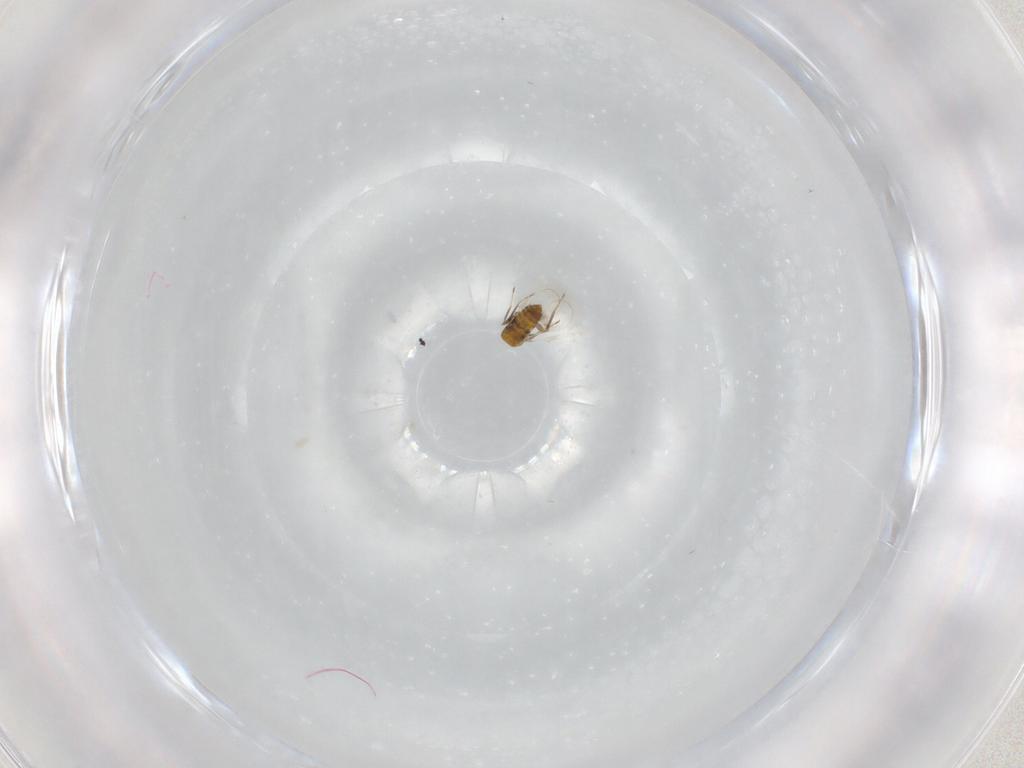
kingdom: Animalia
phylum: Arthropoda
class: Insecta
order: Hymenoptera
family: Trichogrammatidae
